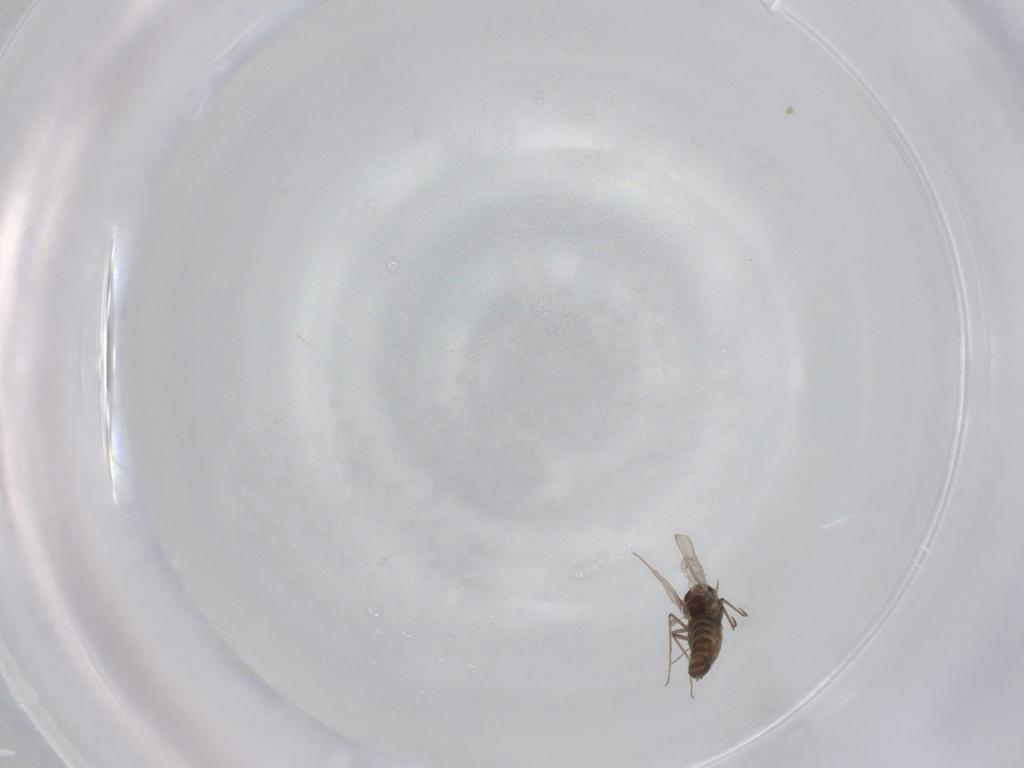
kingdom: Animalia
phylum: Arthropoda
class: Insecta
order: Diptera
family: Chironomidae
